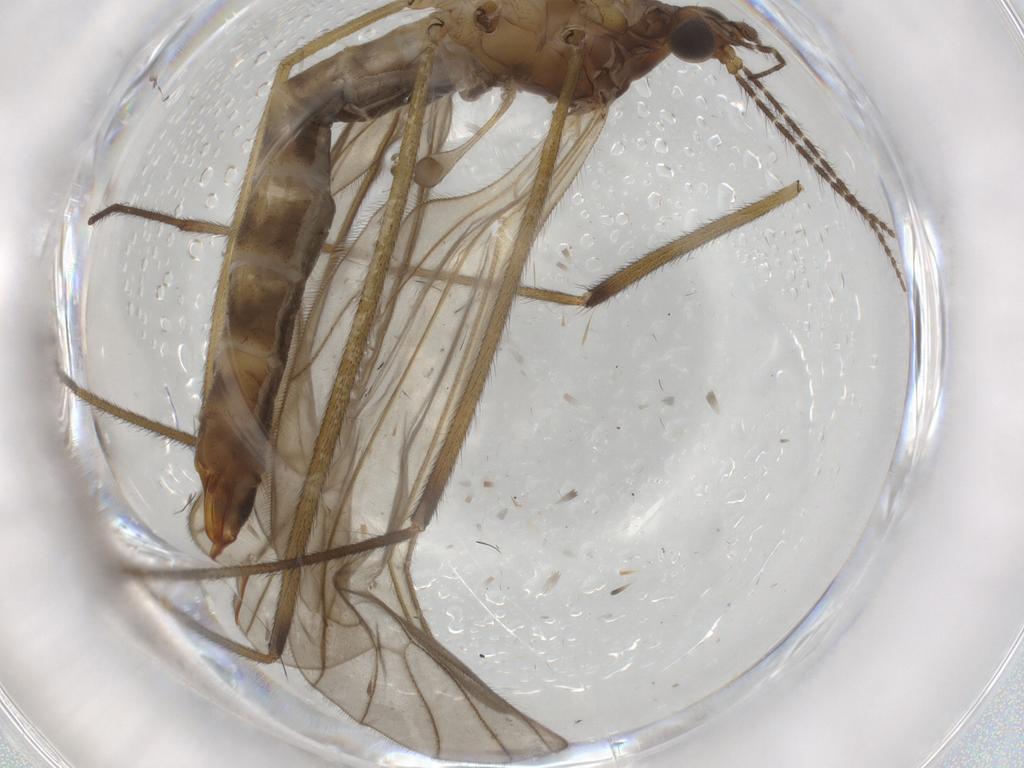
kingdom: Animalia
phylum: Arthropoda
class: Insecta
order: Diptera
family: Limoniidae
